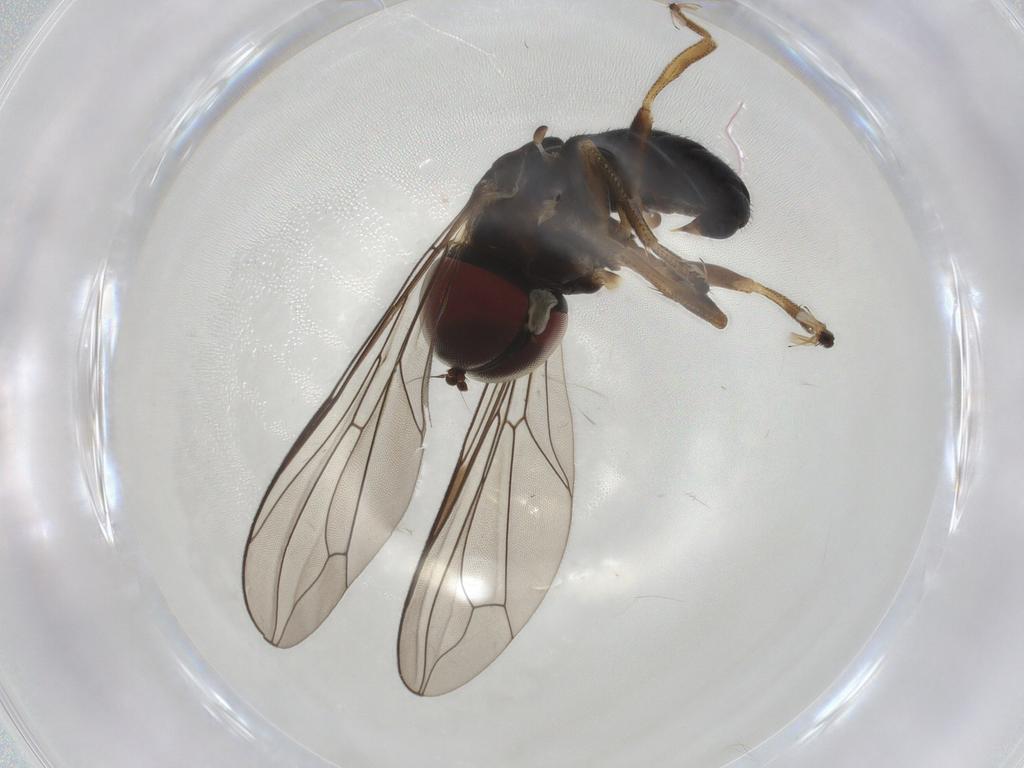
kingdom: Animalia
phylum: Arthropoda
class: Insecta
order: Diptera
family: Pipunculidae
